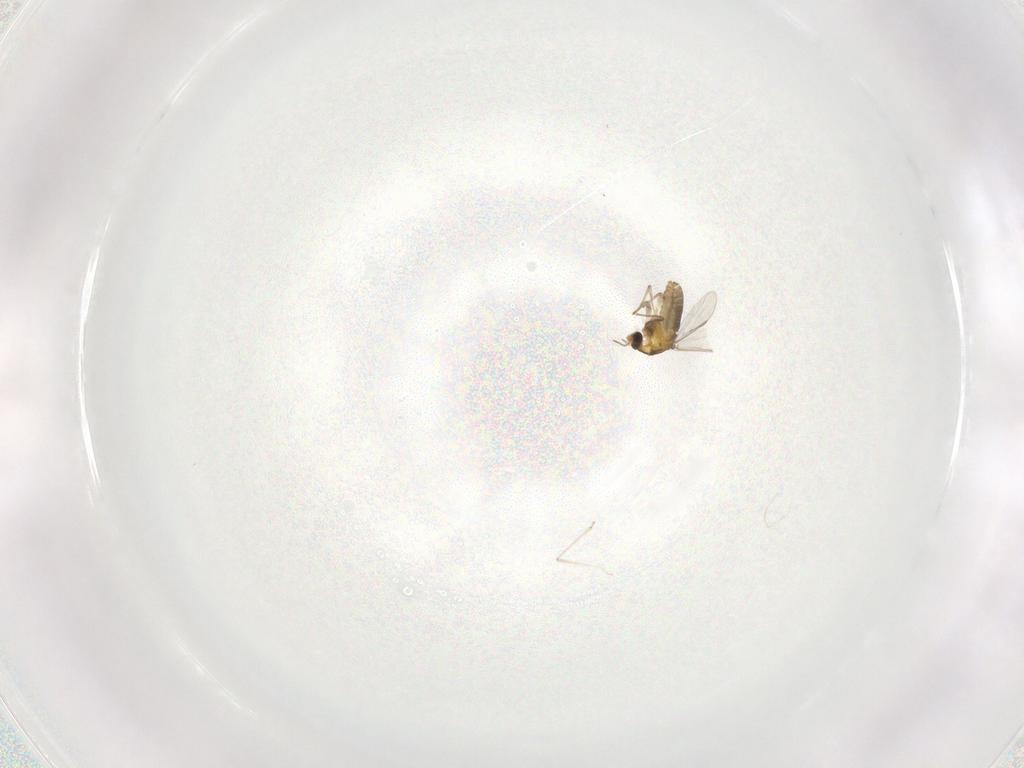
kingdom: Animalia
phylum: Arthropoda
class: Insecta
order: Diptera
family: Chironomidae
